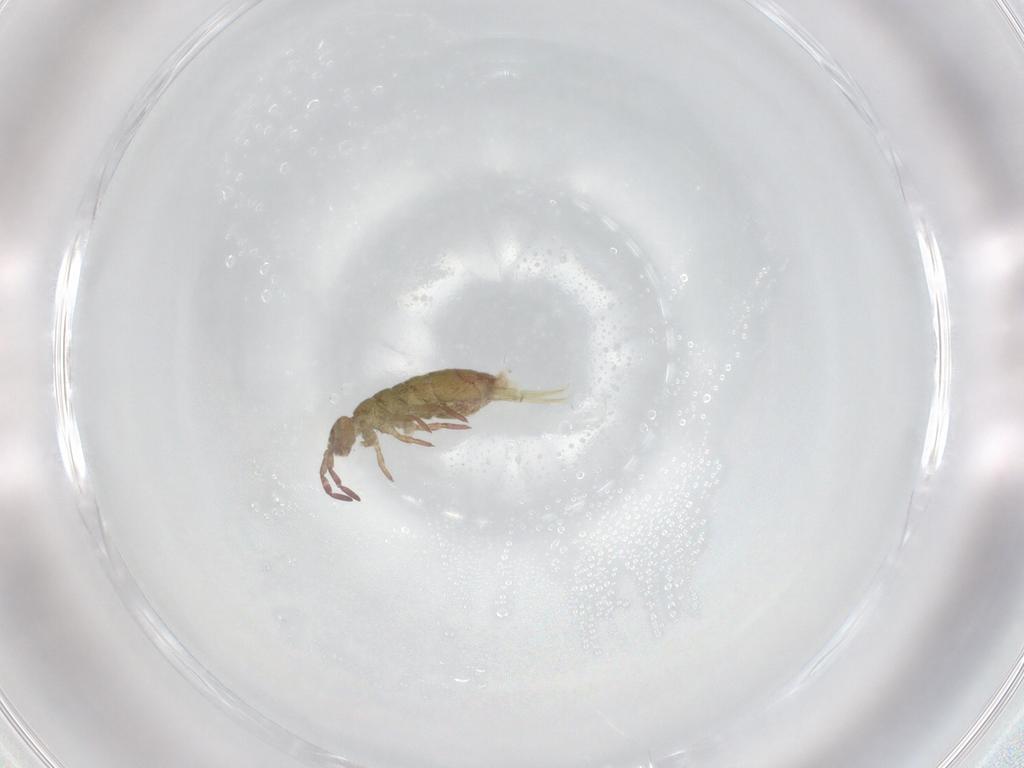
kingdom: Animalia
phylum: Arthropoda
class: Collembola
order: Entomobryomorpha
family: Isotomidae
